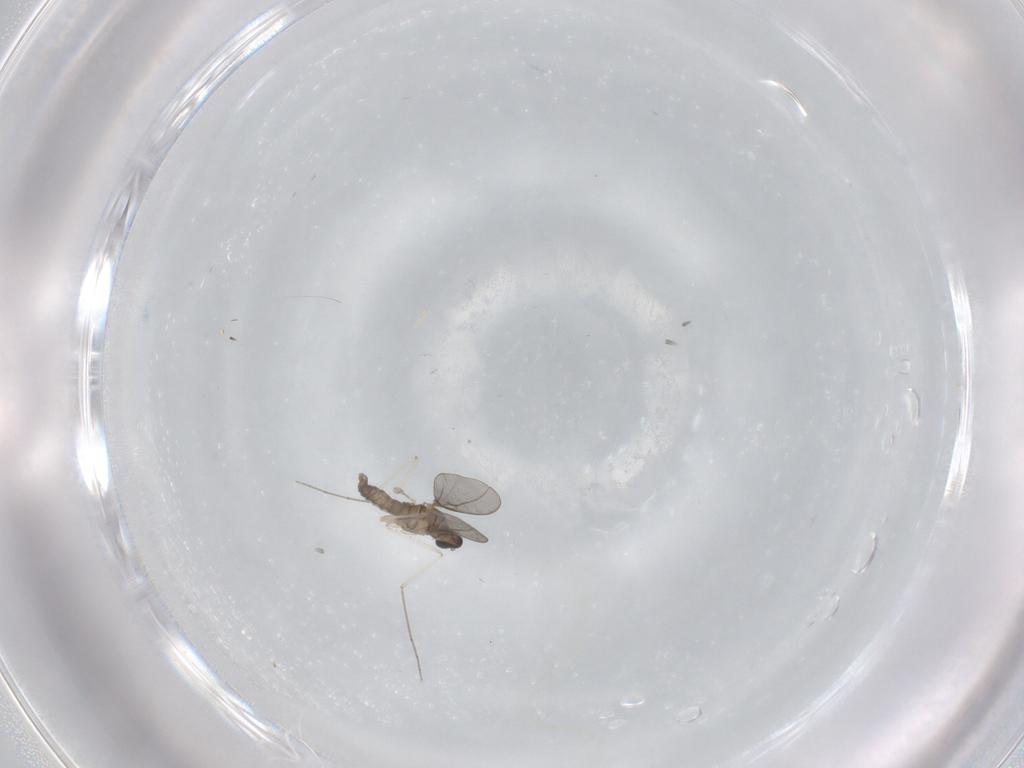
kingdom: Animalia
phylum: Arthropoda
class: Insecta
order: Diptera
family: Cecidomyiidae
